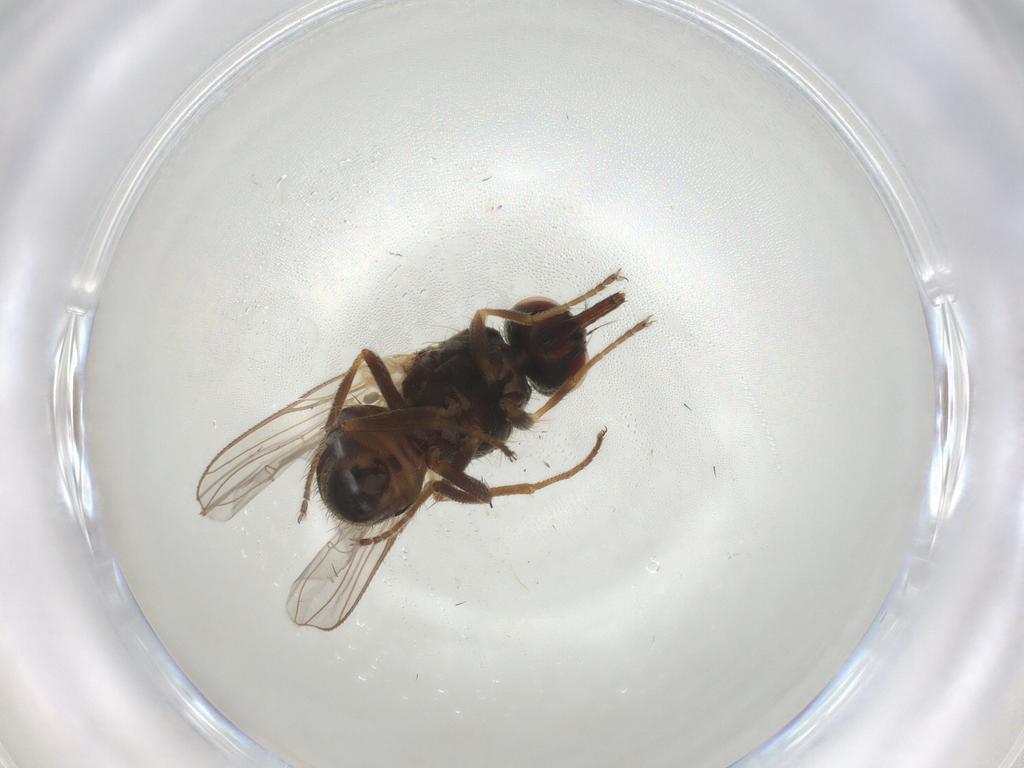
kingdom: Animalia
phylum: Arthropoda
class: Insecta
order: Diptera
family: Muscidae
